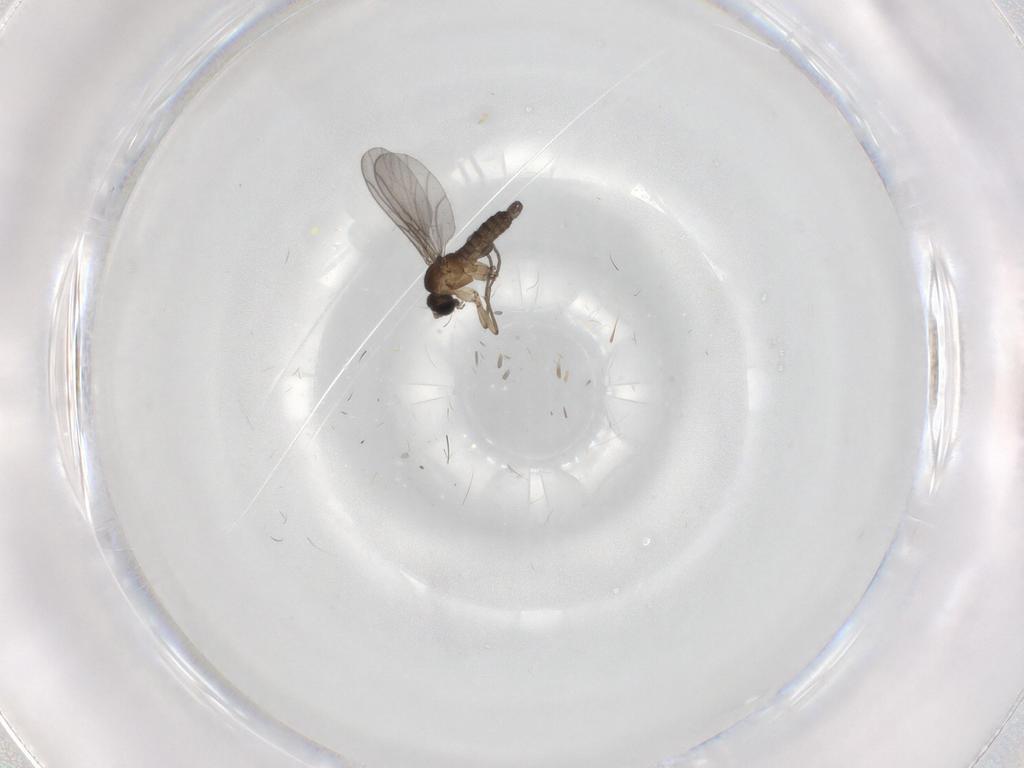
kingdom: Animalia
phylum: Arthropoda
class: Insecta
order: Diptera
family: Sciaridae
